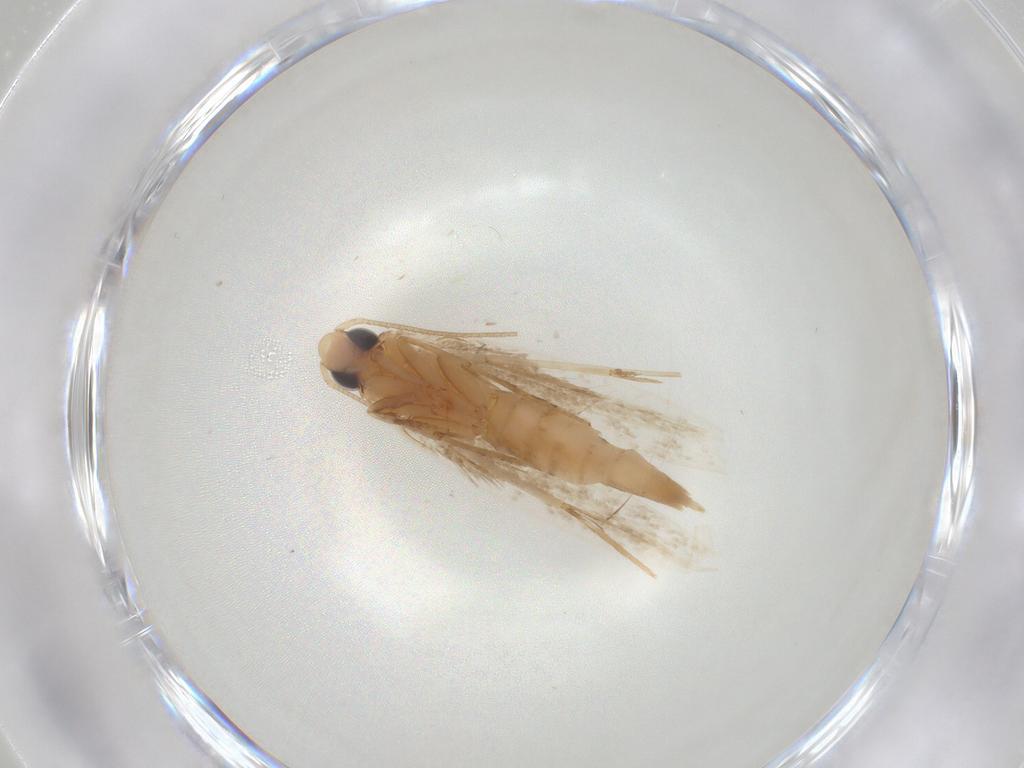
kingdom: Animalia
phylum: Arthropoda
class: Insecta
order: Lepidoptera
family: Tineidae
